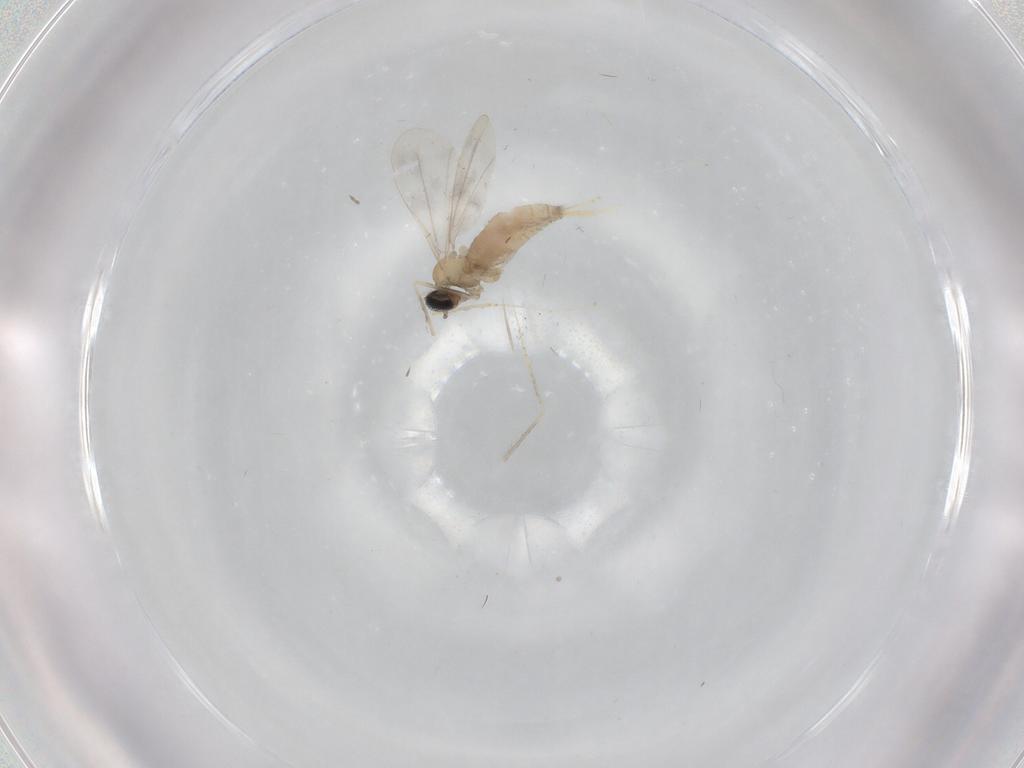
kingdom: Animalia
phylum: Arthropoda
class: Insecta
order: Diptera
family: Cecidomyiidae
